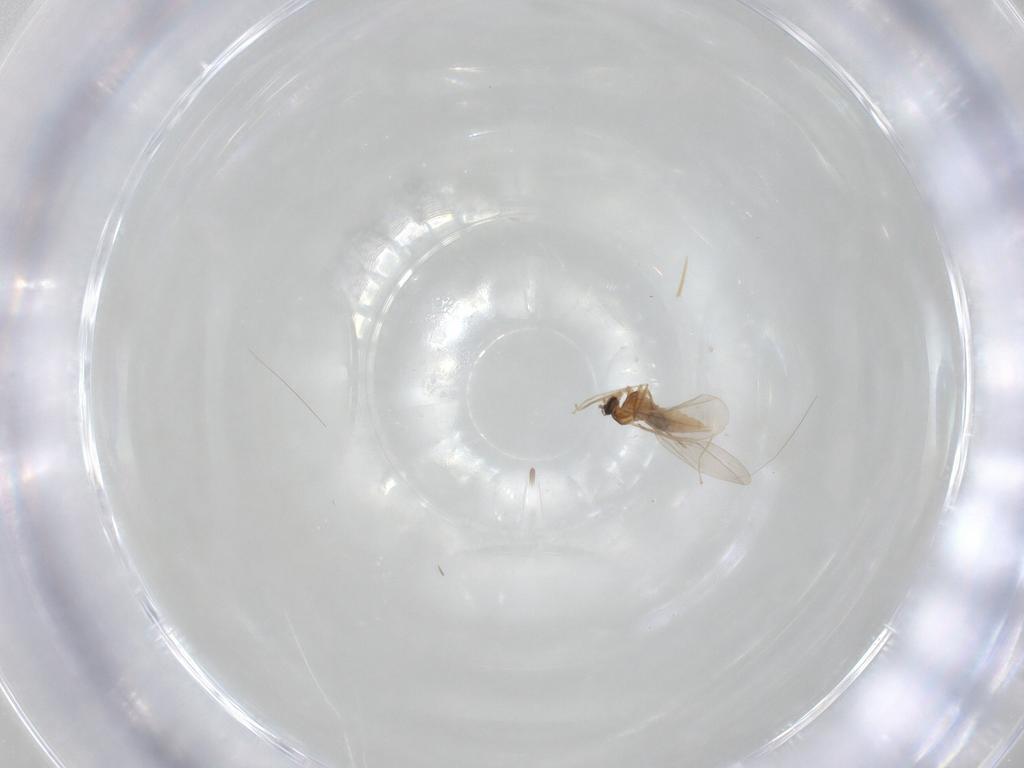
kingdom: Animalia
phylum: Arthropoda
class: Insecta
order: Diptera
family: Cecidomyiidae
